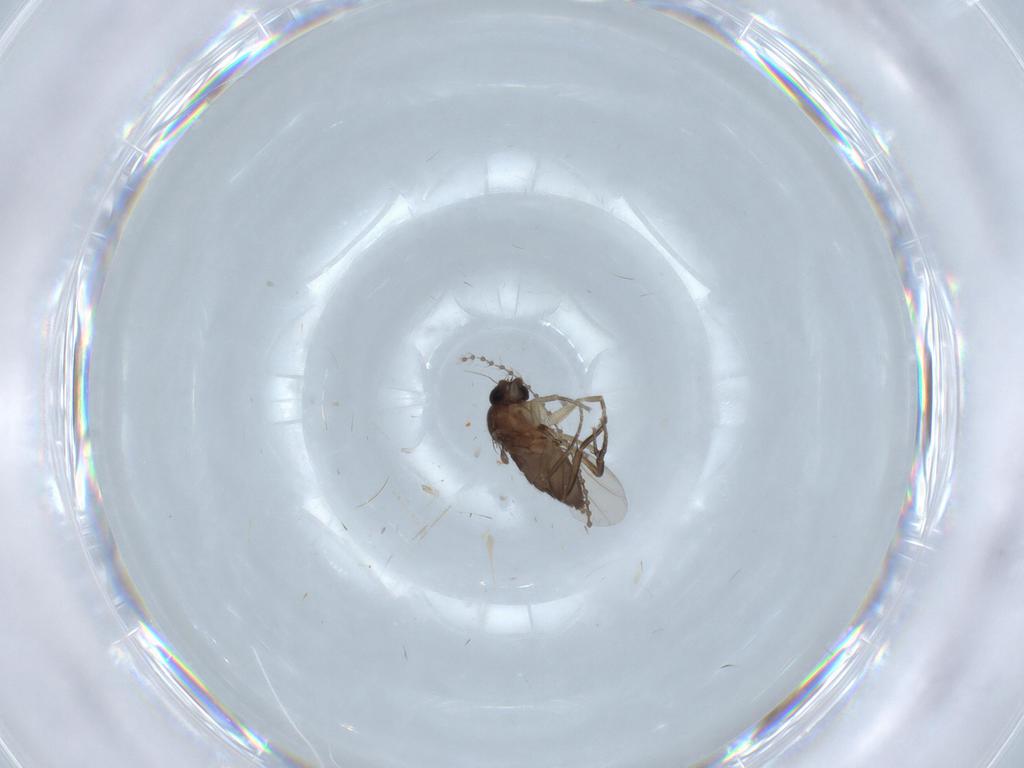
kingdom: Animalia
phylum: Arthropoda
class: Insecta
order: Diptera
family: Phoridae
